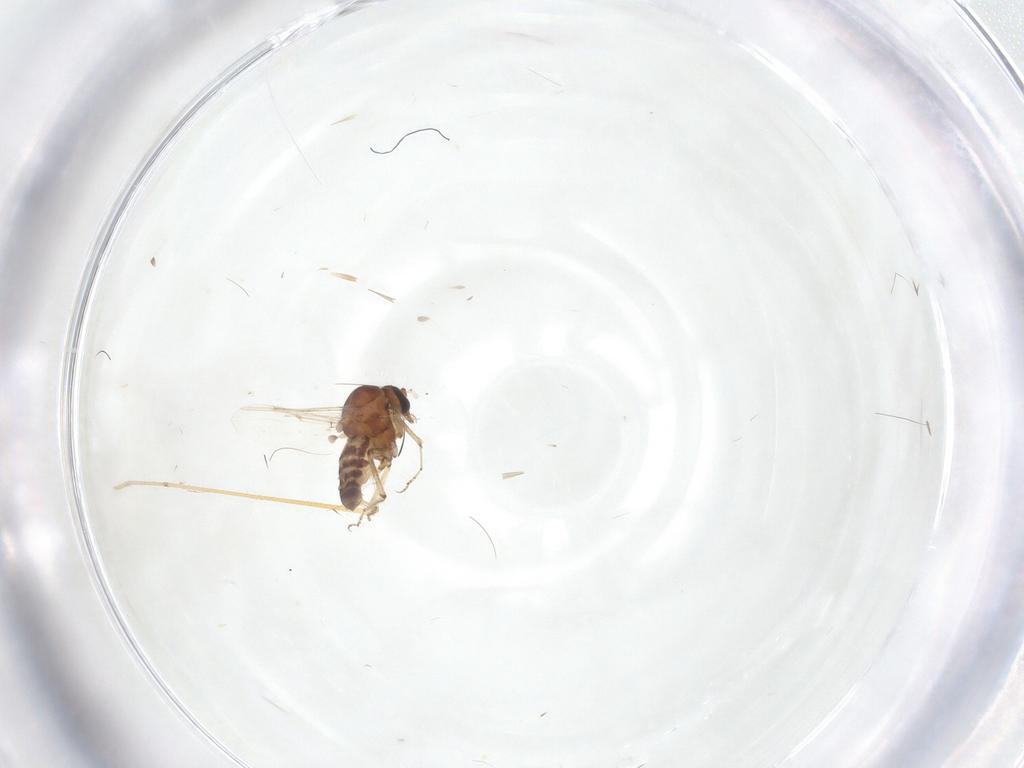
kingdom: Animalia
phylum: Arthropoda
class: Insecta
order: Diptera
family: Ceratopogonidae
